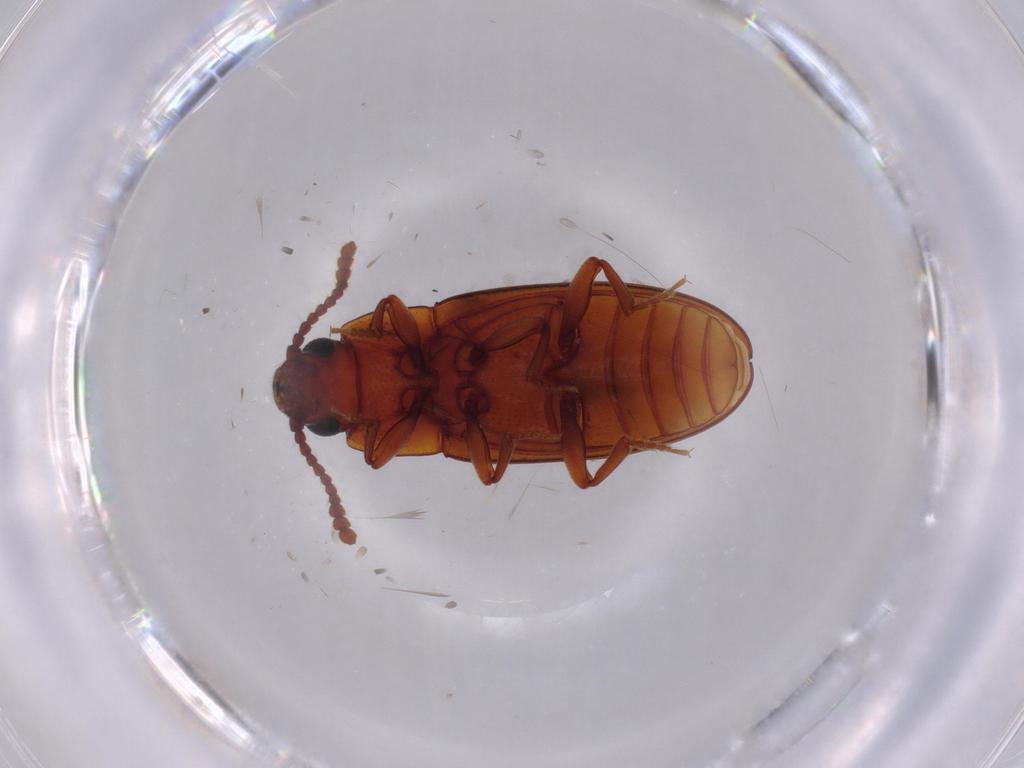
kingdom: Animalia
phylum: Arthropoda
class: Insecta
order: Coleoptera
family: Erotylidae
